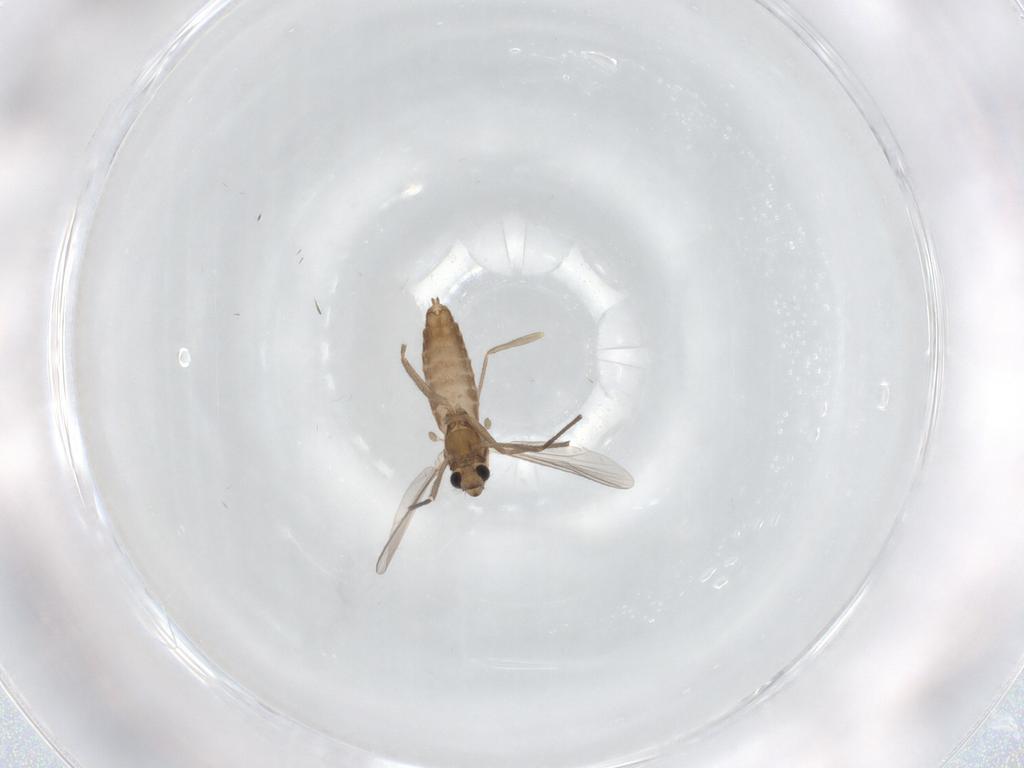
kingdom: Animalia
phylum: Arthropoda
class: Insecta
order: Diptera
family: Chironomidae
